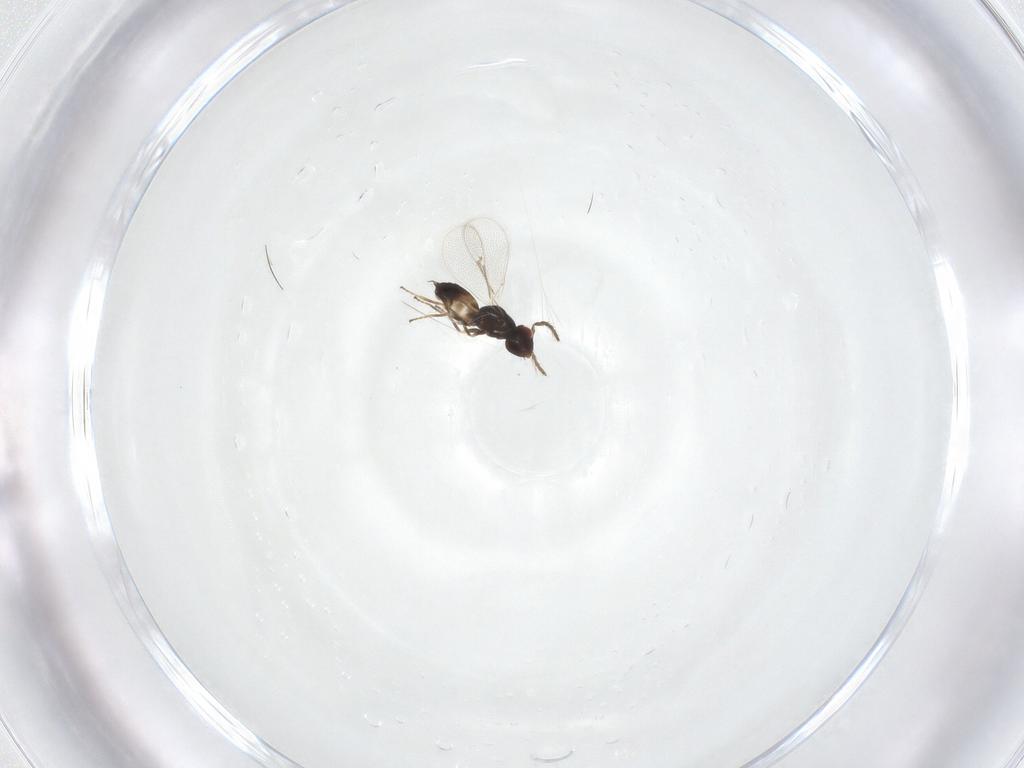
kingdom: Animalia
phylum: Arthropoda
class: Insecta
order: Hymenoptera
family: Eulophidae
